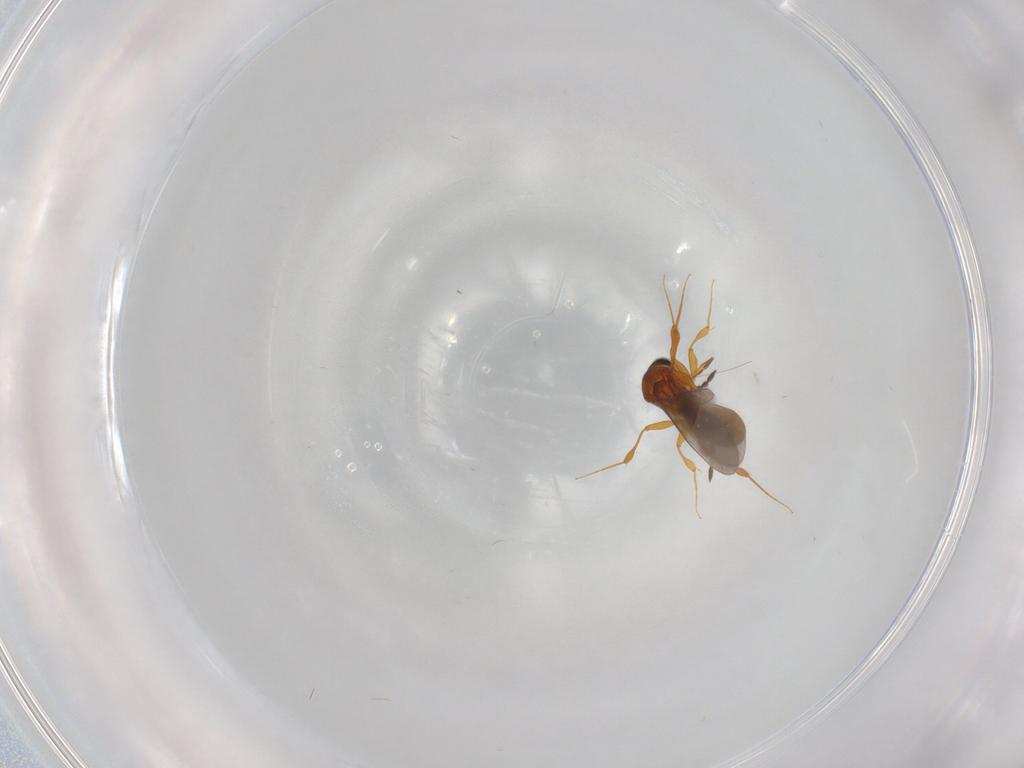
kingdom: Animalia
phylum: Arthropoda
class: Insecta
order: Hymenoptera
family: Platygastridae
